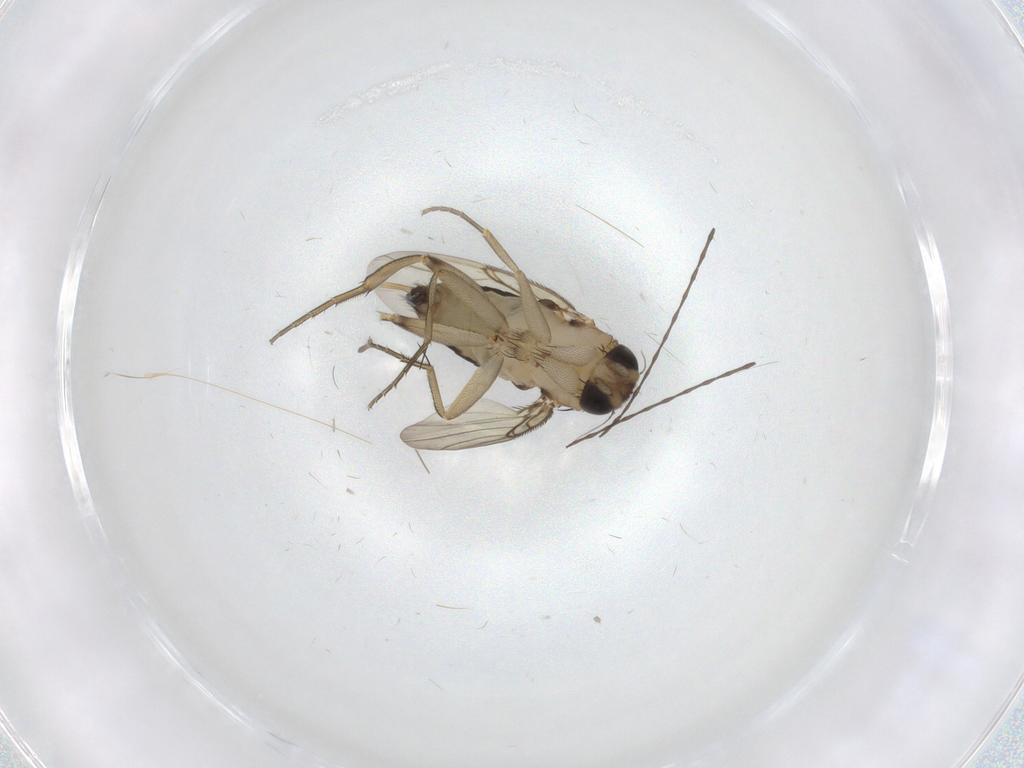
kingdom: Animalia
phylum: Arthropoda
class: Insecta
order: Diptera
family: Phoridae
